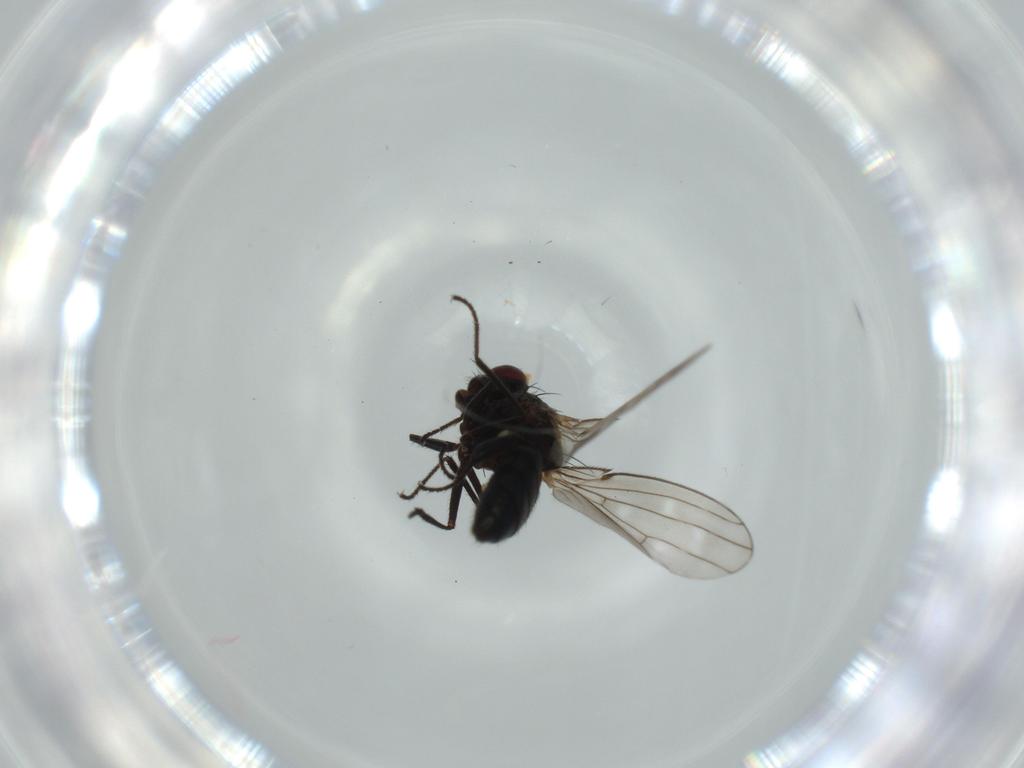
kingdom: Animalia
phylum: Arthropoda
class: Insecta
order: Diptera
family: Ephydridae
